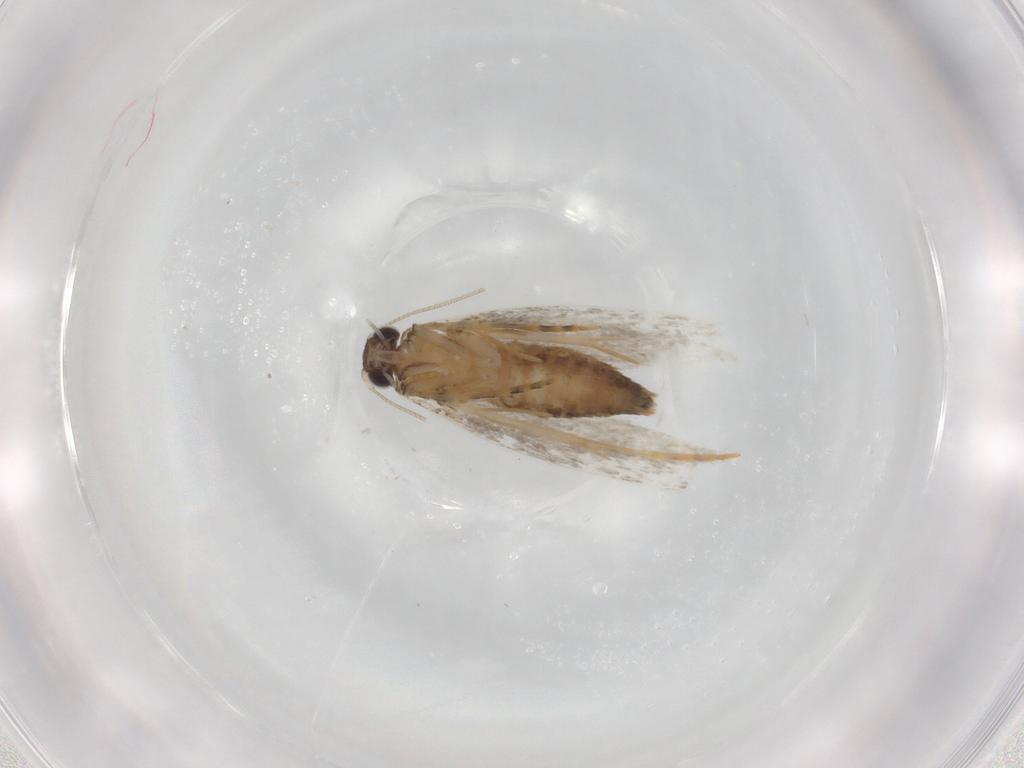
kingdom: Animalia
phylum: Arthropoda
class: Insecta
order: Lepidoptera
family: Tineidae
